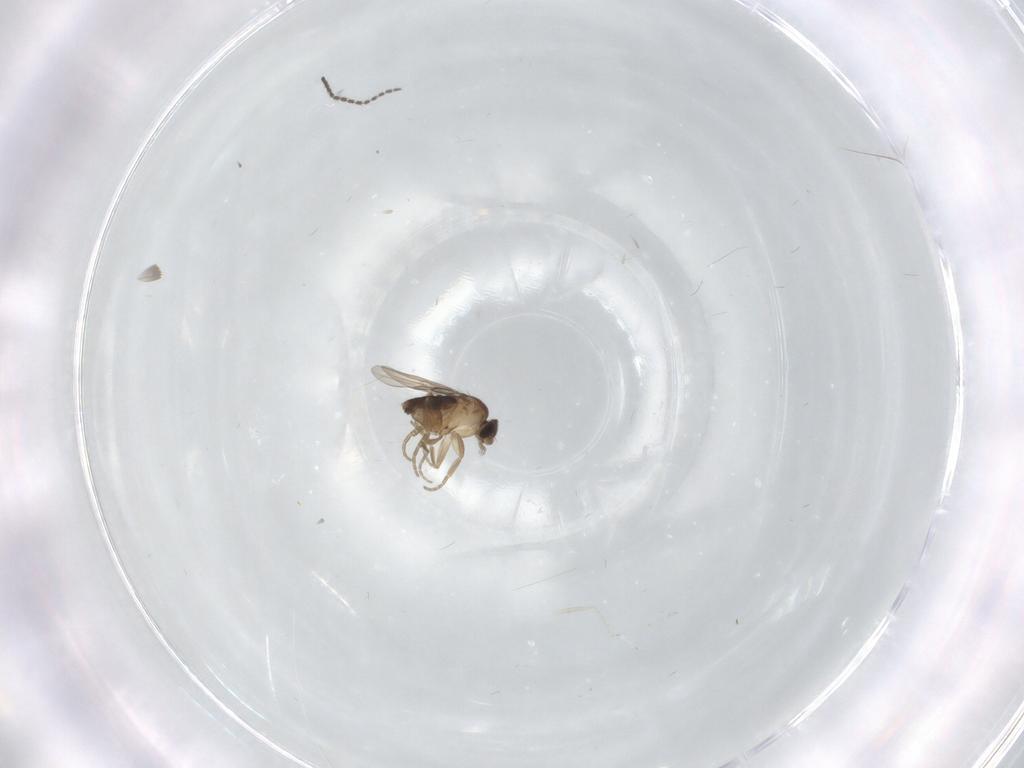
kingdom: Animalia
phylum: Arthropoda
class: Insecta
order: Diptera
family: Sciaridae
